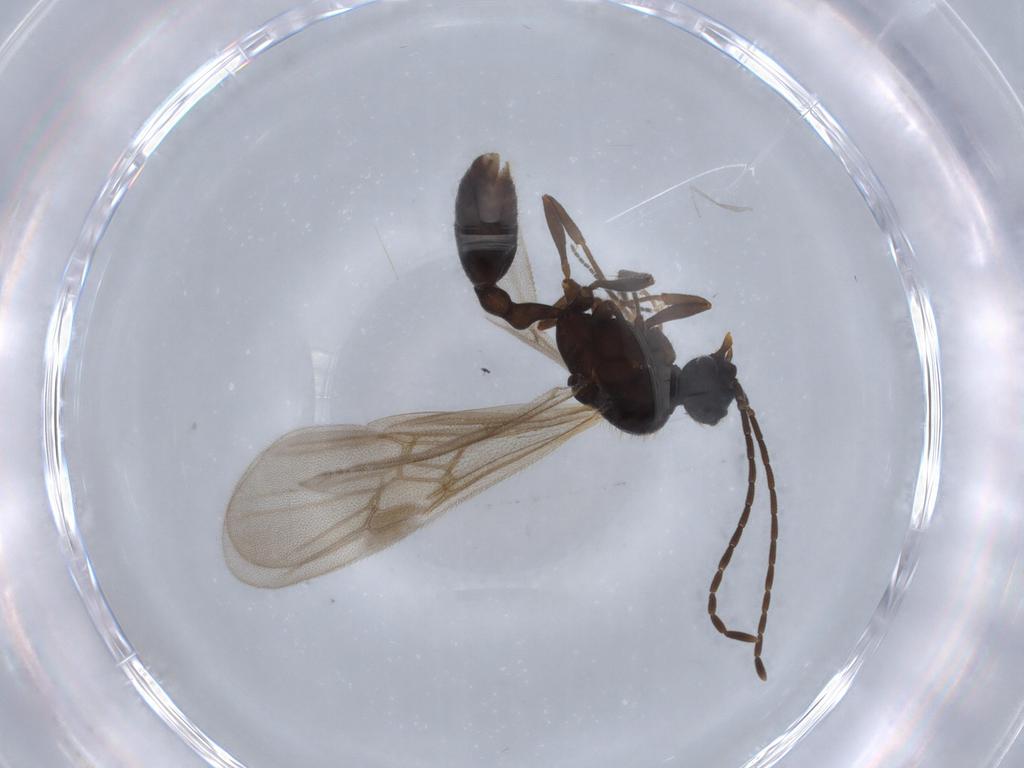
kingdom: Animalia
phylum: Arthropoda
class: Insecta
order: Hymenoptera
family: Formicidae
